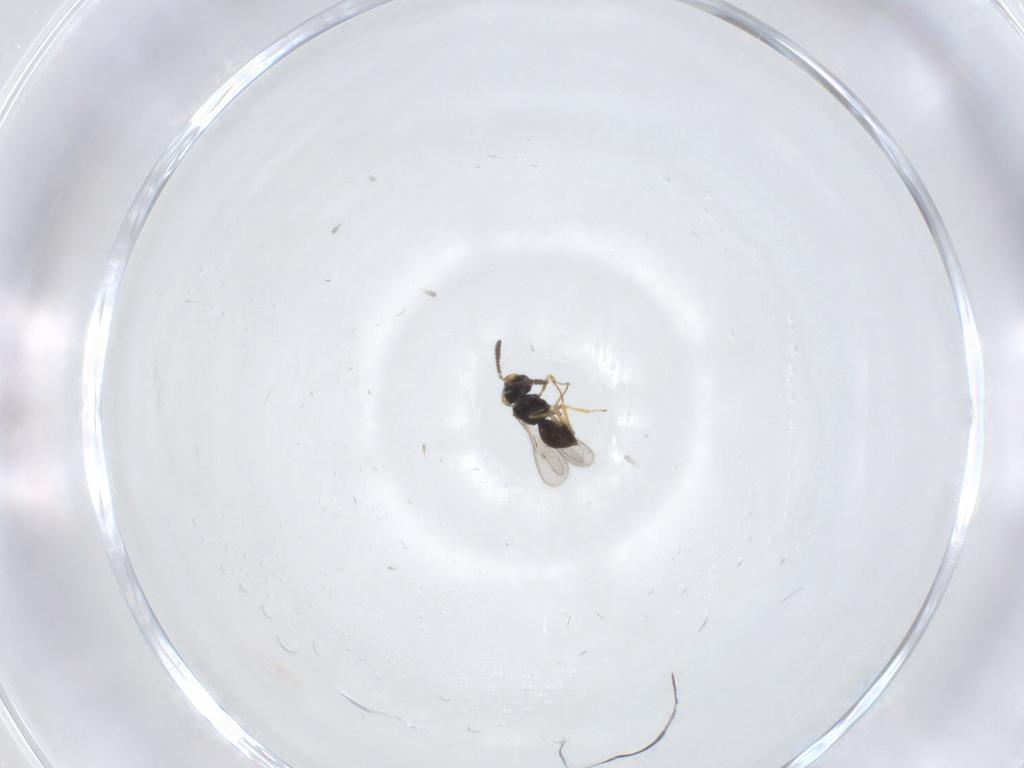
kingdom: Animalia
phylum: Arthropoda
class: Insecta
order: Hymenoptera
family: Scelionidae
